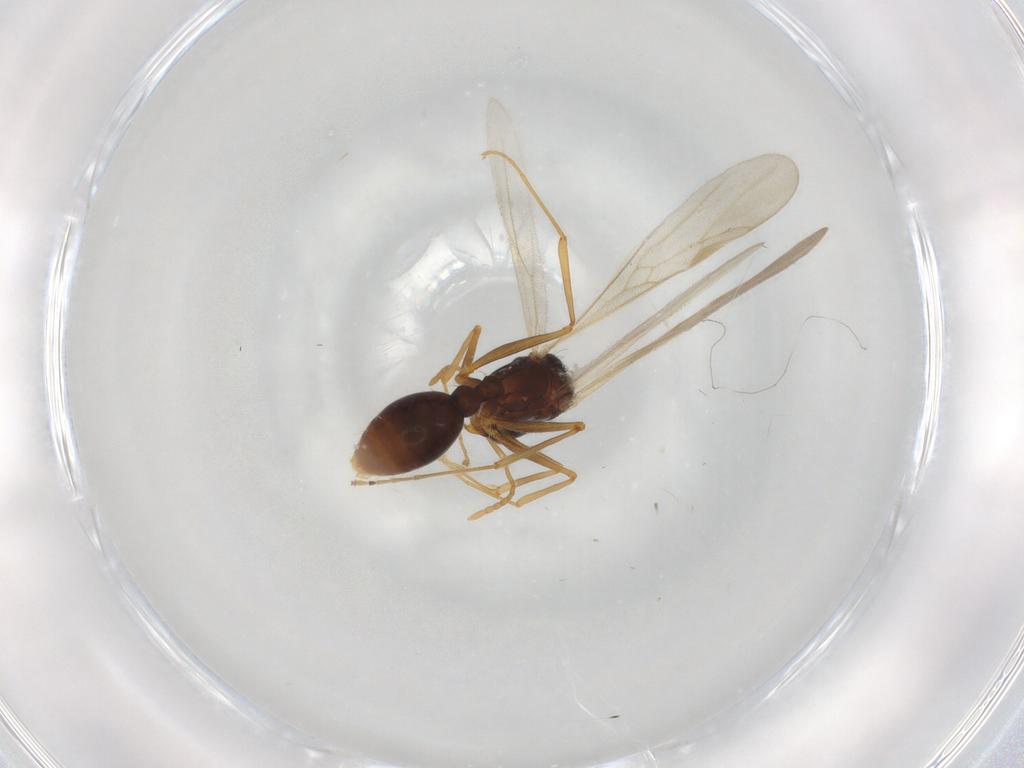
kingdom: Animalia
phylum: Arthropoda
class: Insecta
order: Hymenoptera
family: Formicidae
